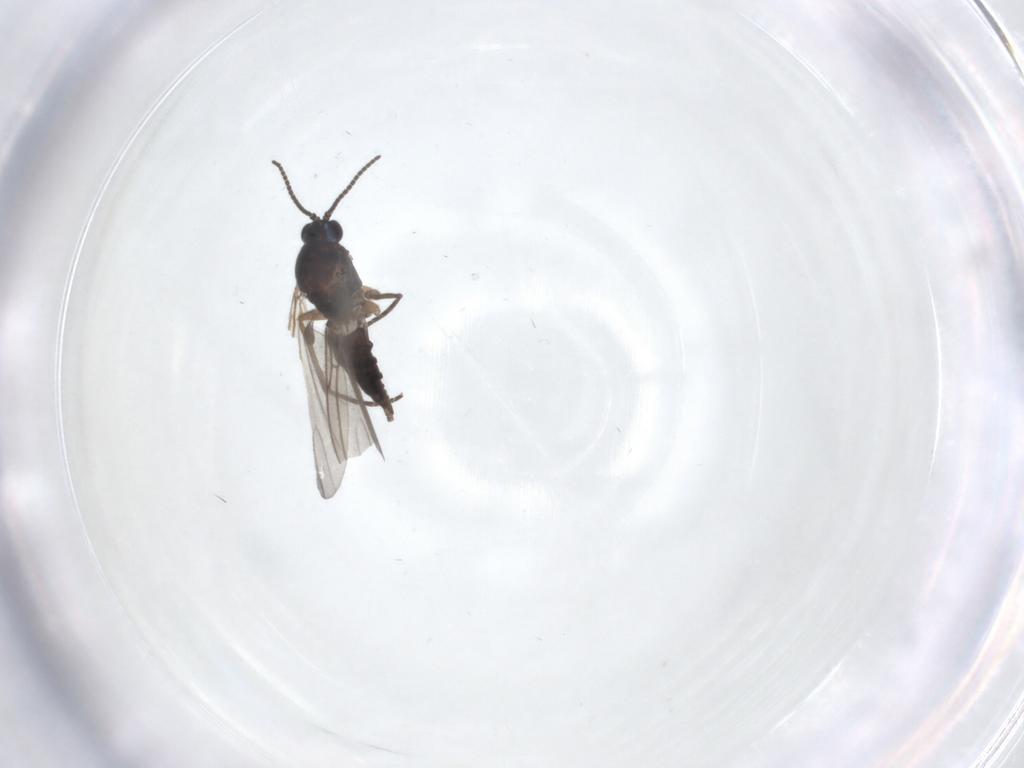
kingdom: Animalia
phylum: Arthropoda
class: Insecta
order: Diptera
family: Sciaridae
